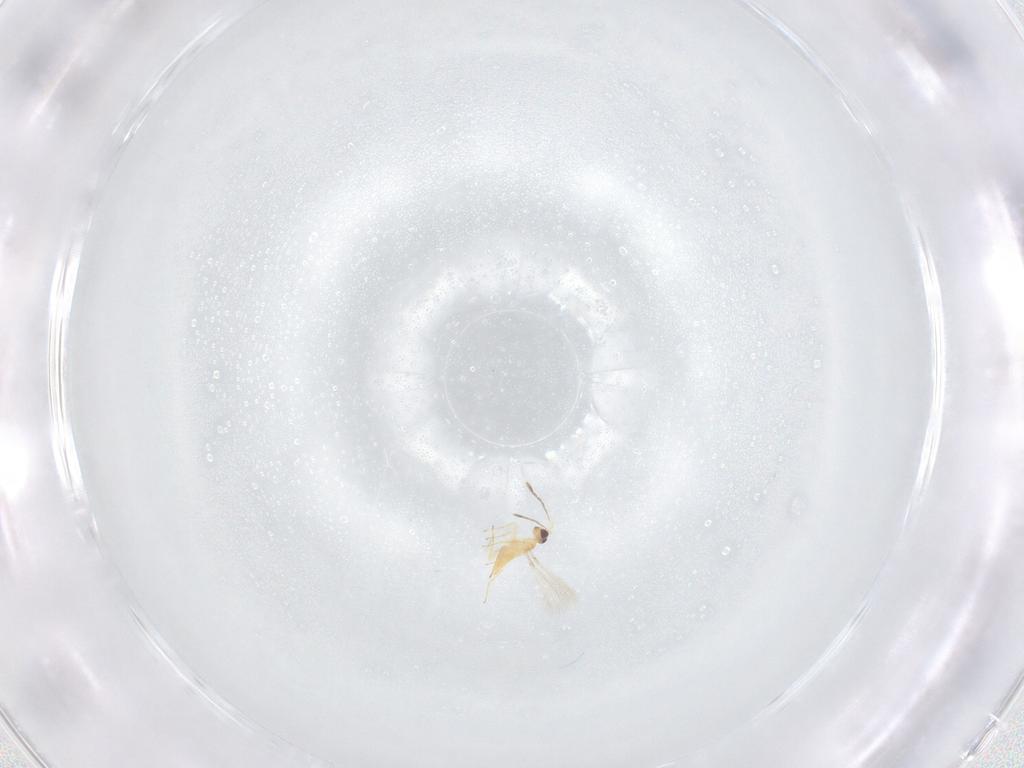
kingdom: Animalia
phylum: Arthropoda
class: Insecta
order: Hymenoptera
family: Mymaridae
